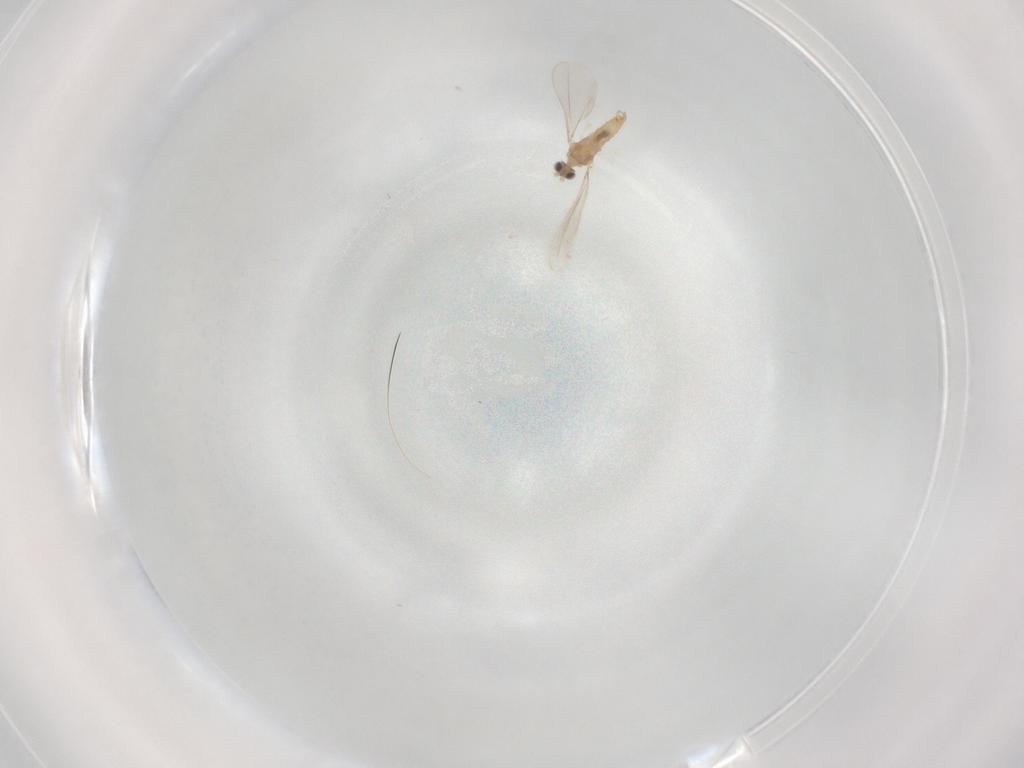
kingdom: Animalia
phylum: Arthropoda
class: Insecta
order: Diptera
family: Cecidomyiidae
